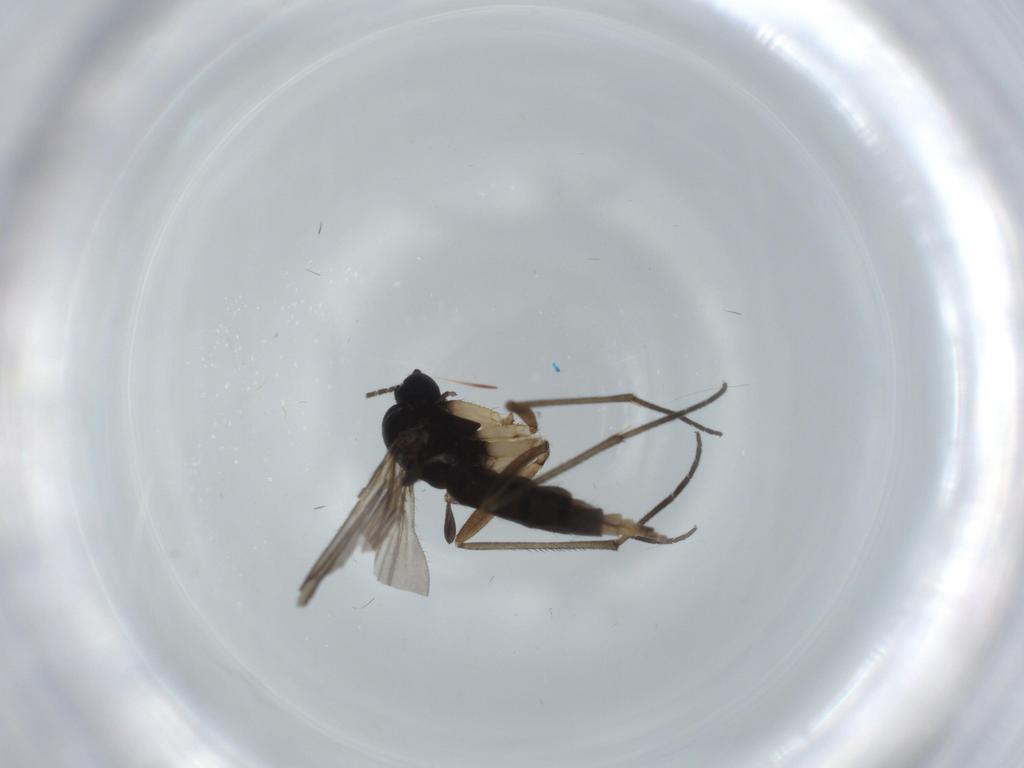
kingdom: Animalia
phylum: Arthropoda
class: Insecta
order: Diptera
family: Sciaridae
